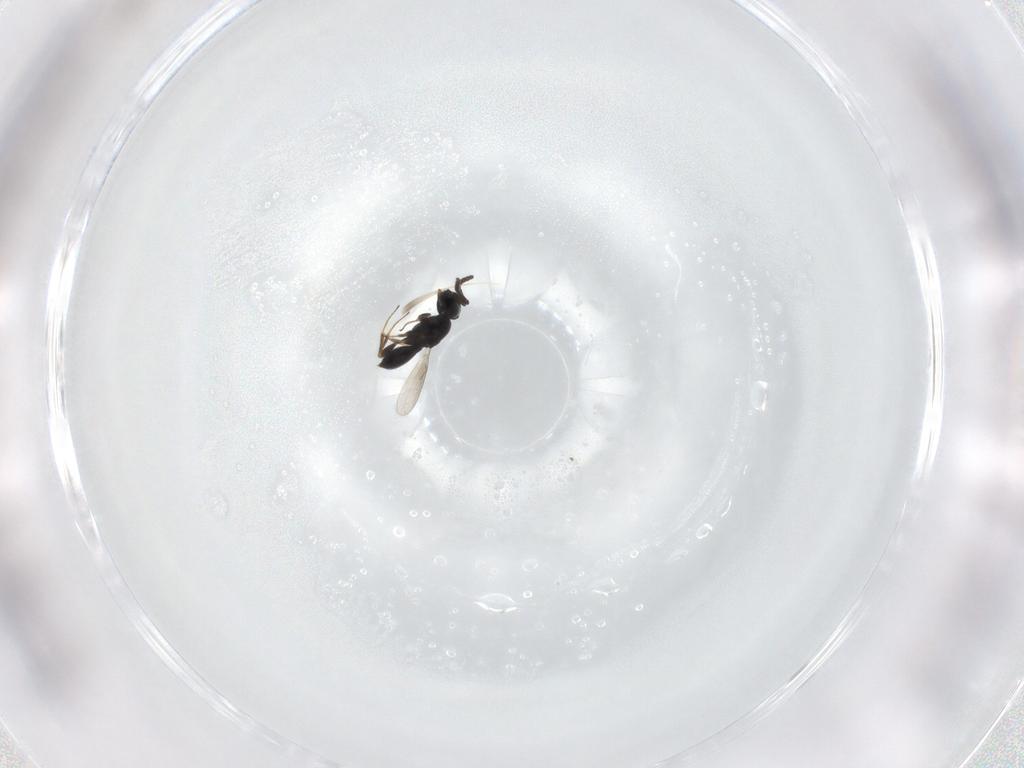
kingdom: Animalia
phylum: Arthropoda
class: Insecta
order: Hymenoptera
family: Scelionidae
